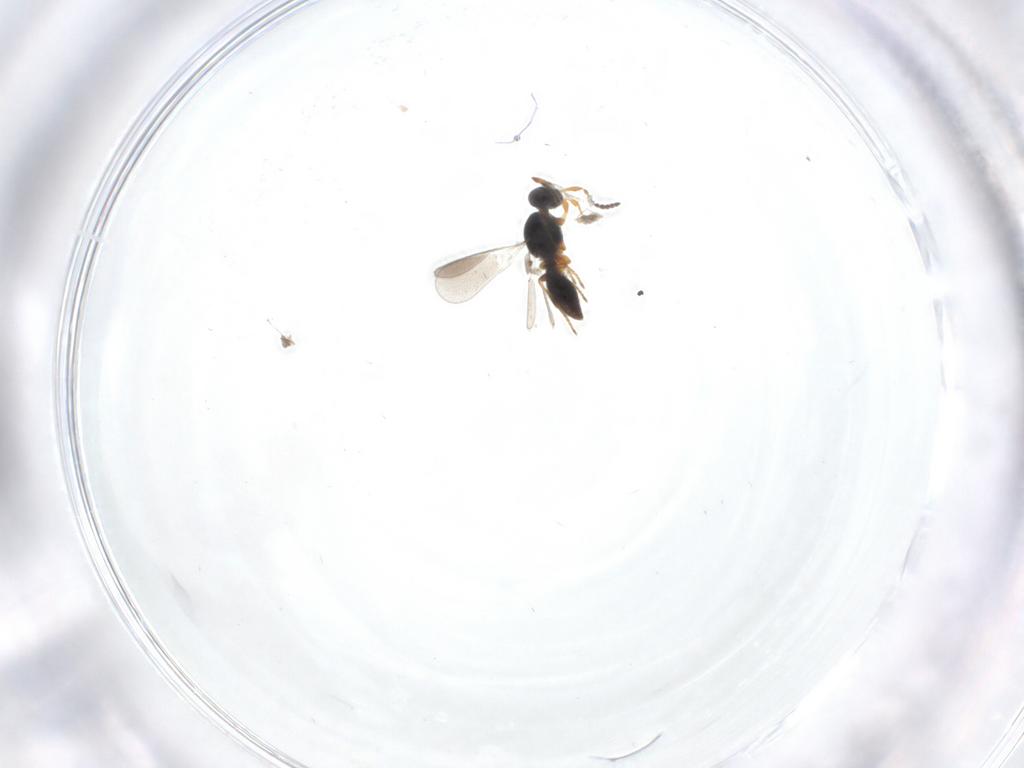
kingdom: Animalia
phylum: Arthropoda
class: Insecta
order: Hymenoptera
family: Platygastridae
